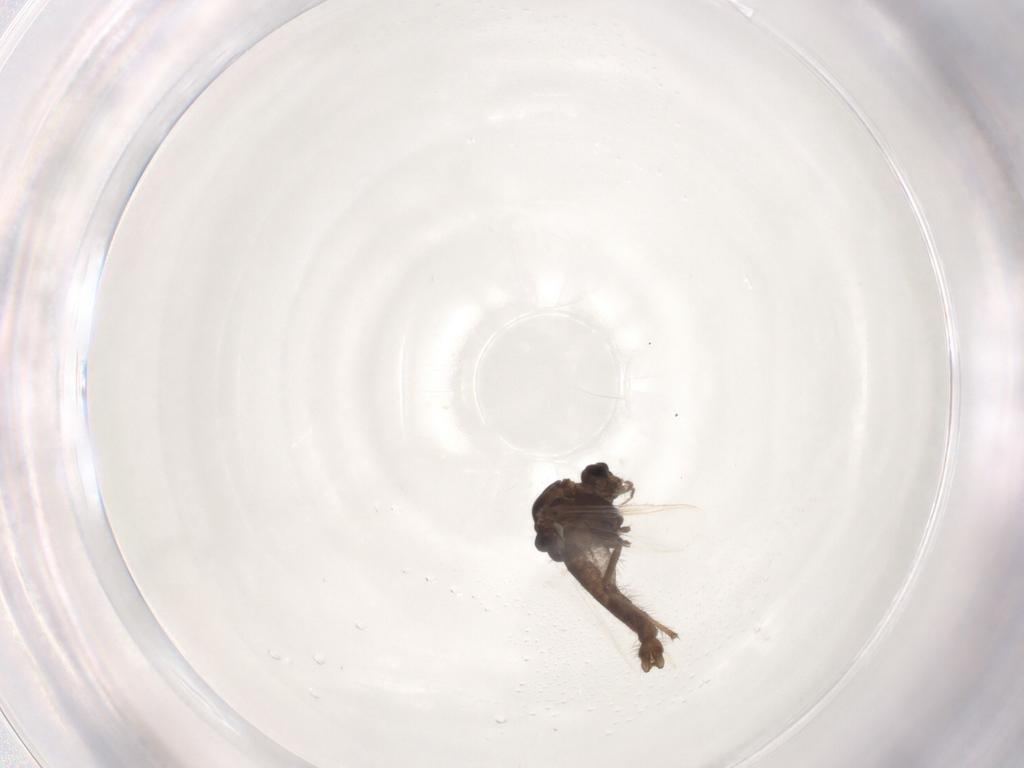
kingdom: Animalia
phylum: Arthropoda
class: Insecta
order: Diptera
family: Chironomidae
